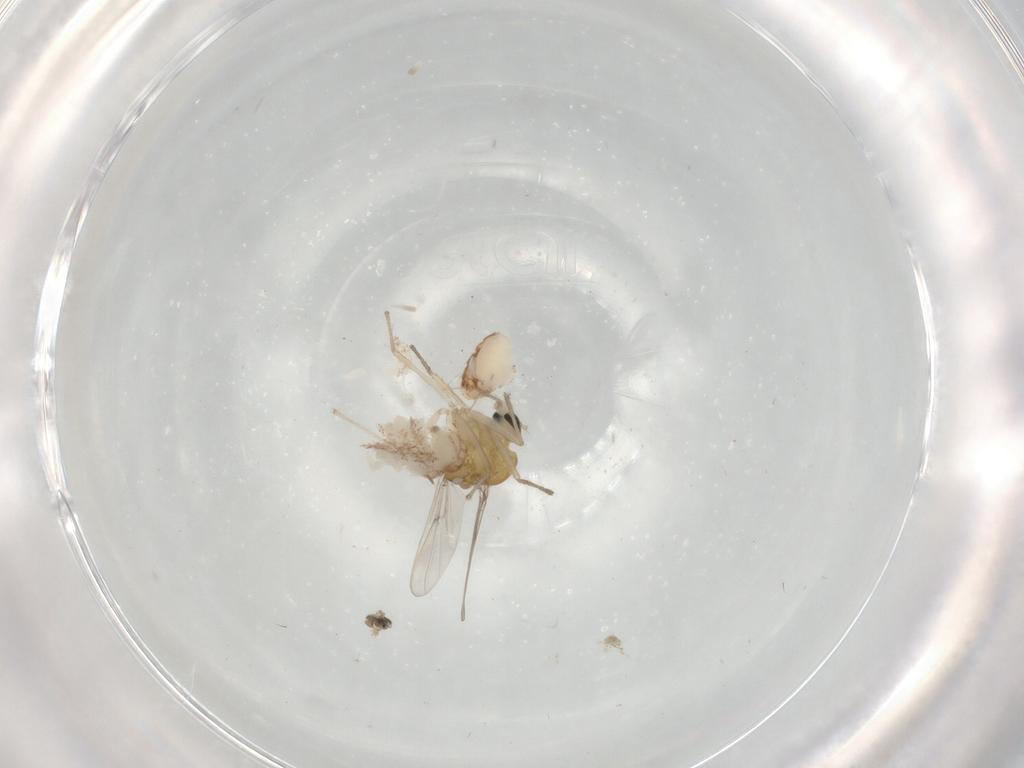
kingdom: Animalia
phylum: Arthropoda
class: Insecta
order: Diptera
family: Chironomidae
